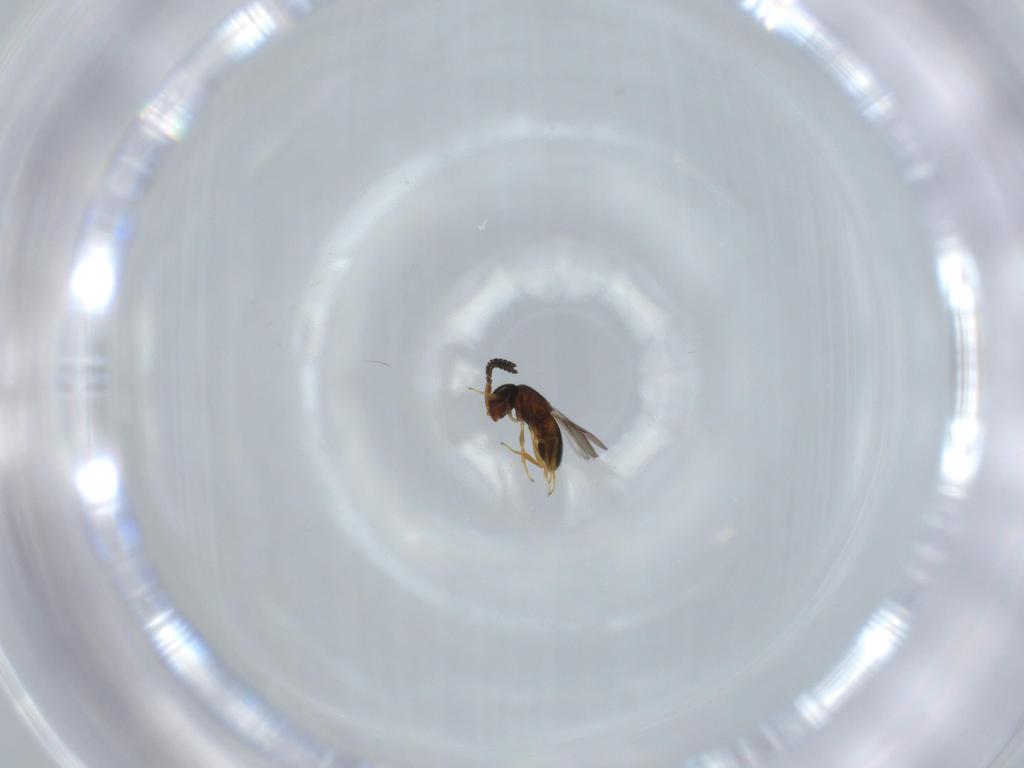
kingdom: Animalia
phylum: Arthropoda
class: Insecta
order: Hymenoptera
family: Scelionidae
